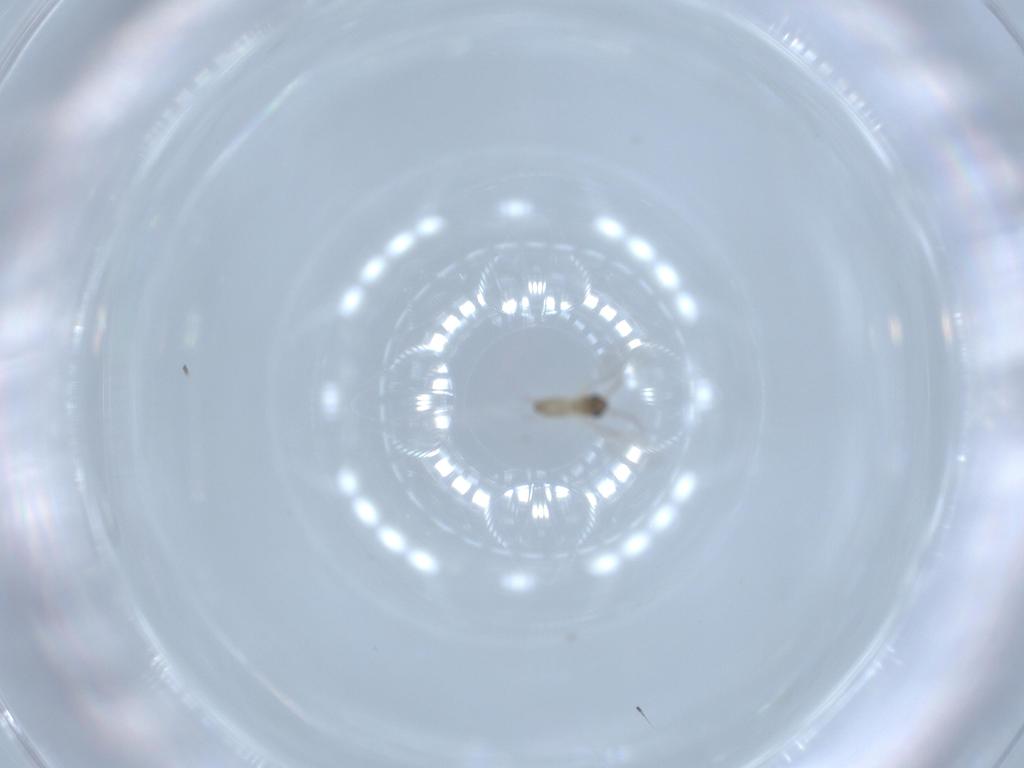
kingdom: Animalia
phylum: Arthropoda
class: Insecta
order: Diptera
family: Cecidomyiidae
